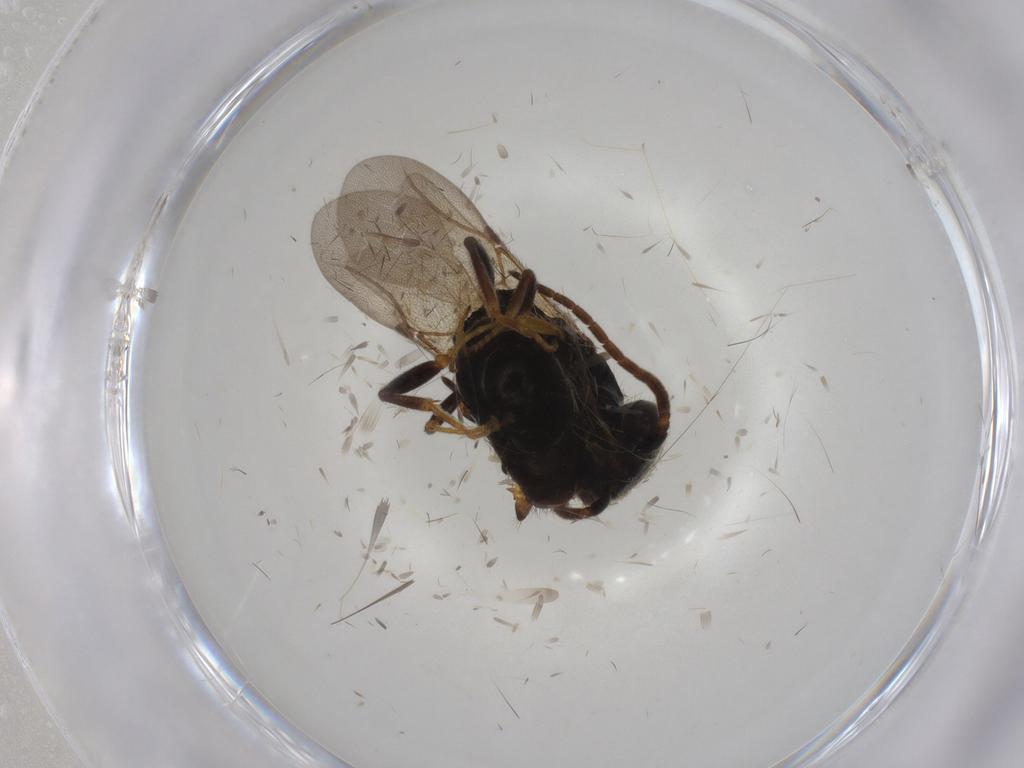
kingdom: Animalia
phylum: Arthropoda
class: Insecta
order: Hymenoptera
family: Bethylidae
